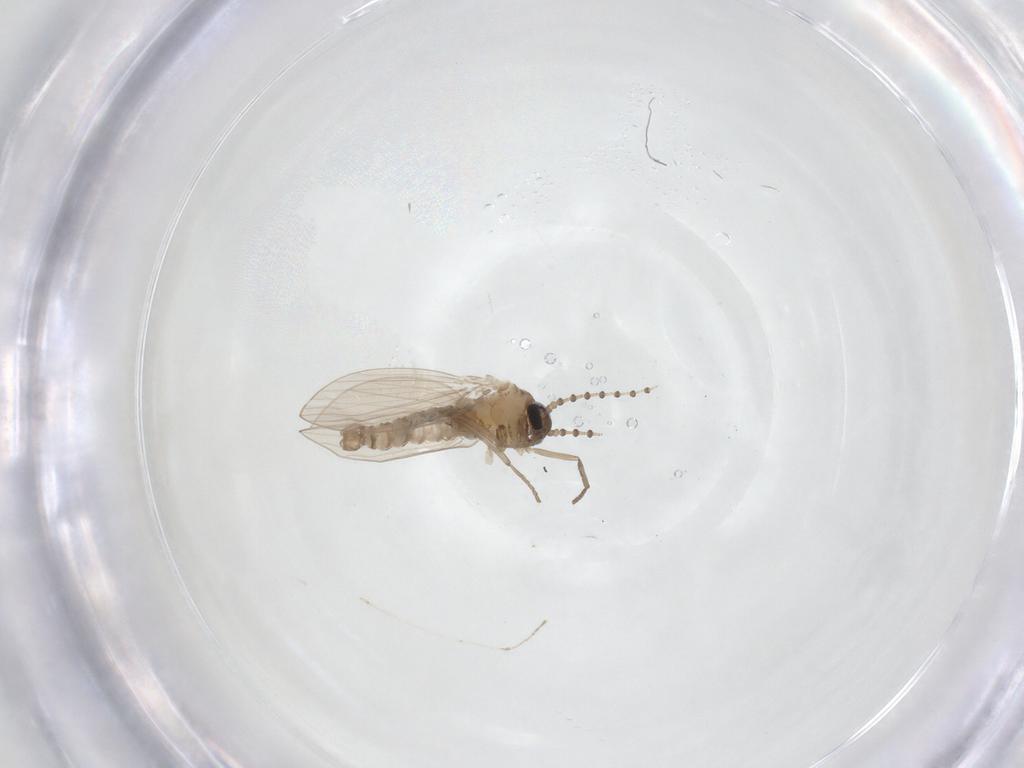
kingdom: Animalia
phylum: Arthropoda
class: Insecta
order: Diptera
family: Psychodidae
